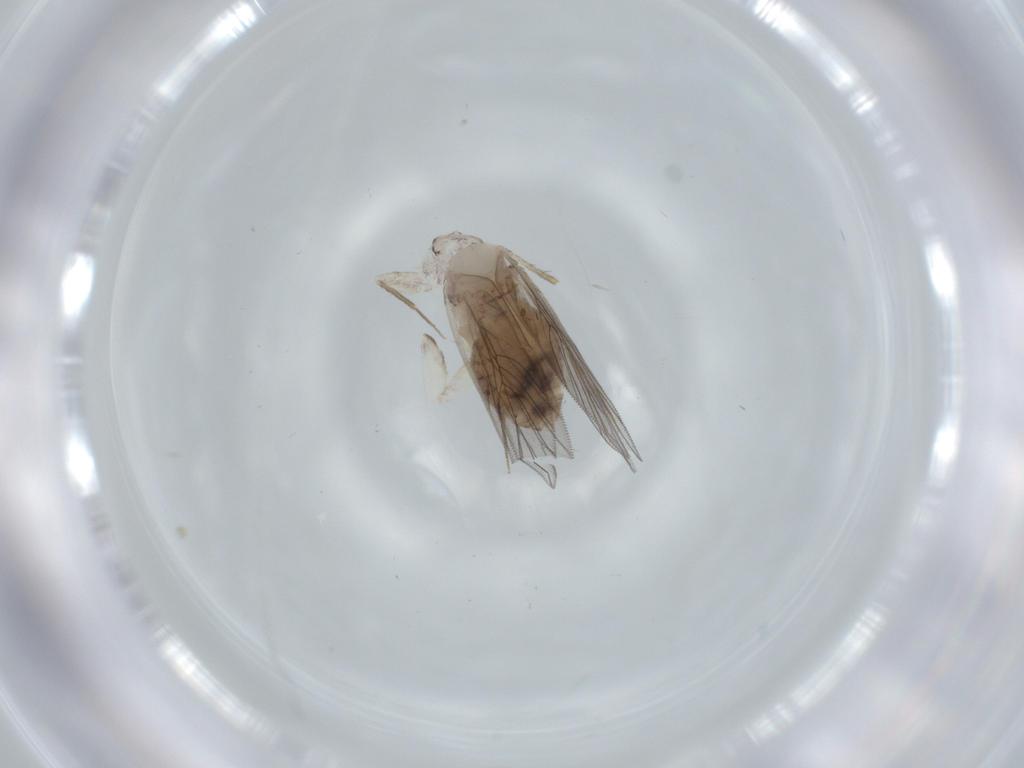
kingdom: Animalia
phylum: Arthropoda
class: Insecta
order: Psocodea
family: Lepidopsocidae
